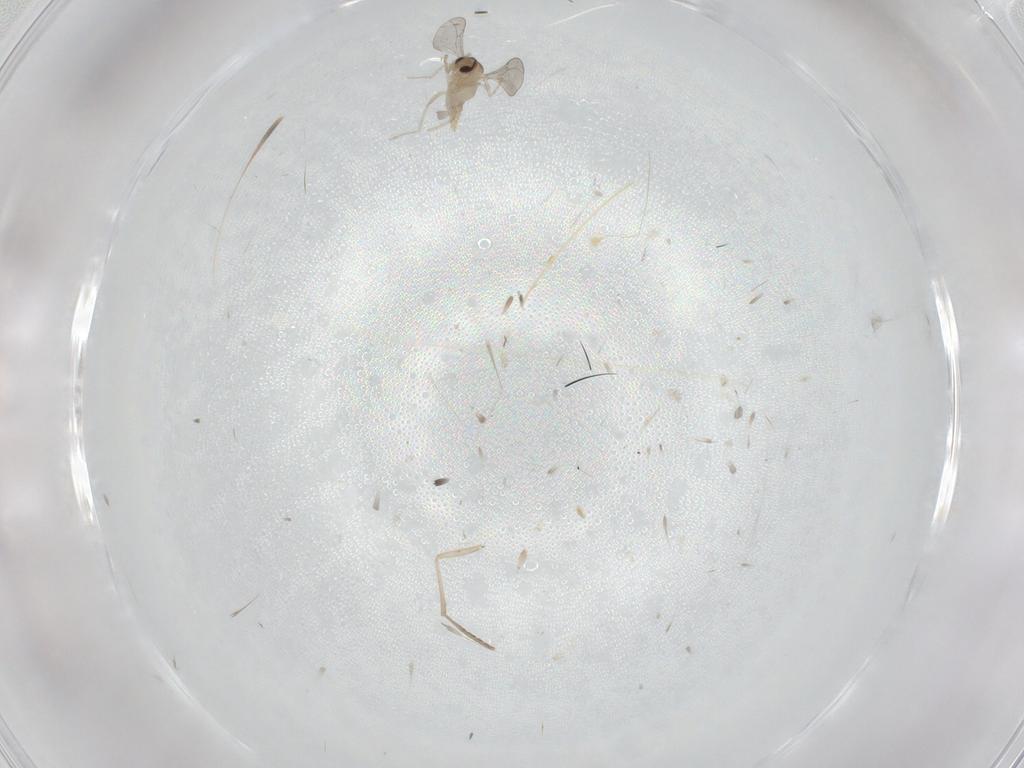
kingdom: Animalia
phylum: Arthropoda
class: Insecta
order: Diptera
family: Cecidomyiidae
